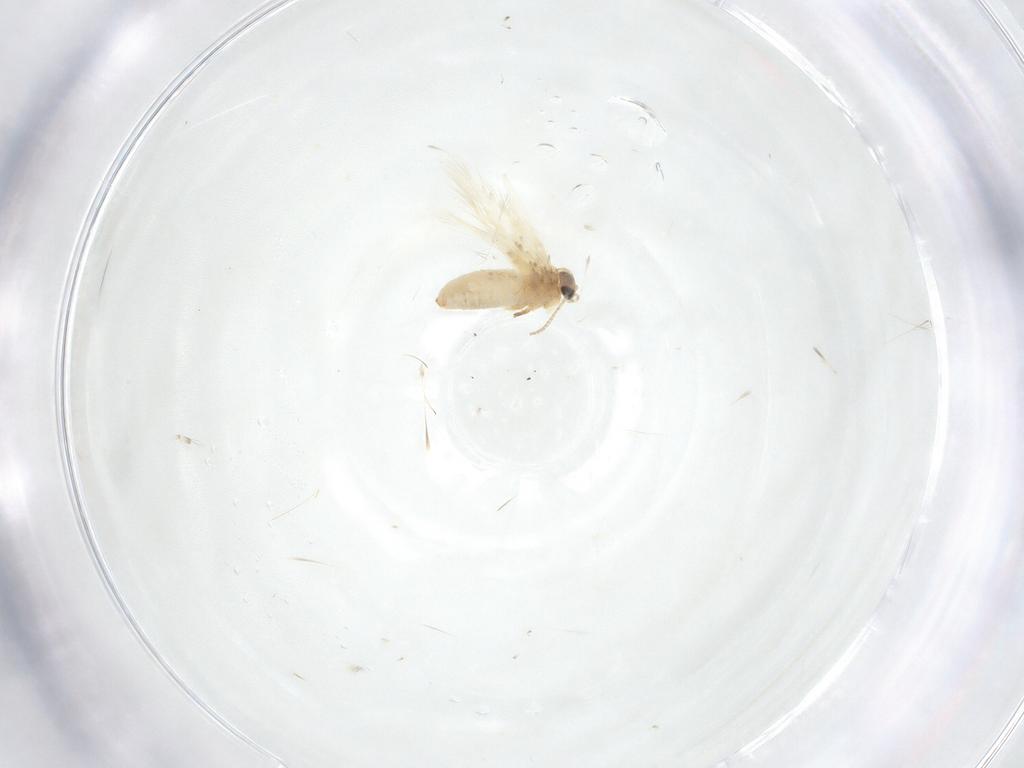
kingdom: Animalia
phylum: Arthropoda
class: Insecta
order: Lepidoptera
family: Crambidae
